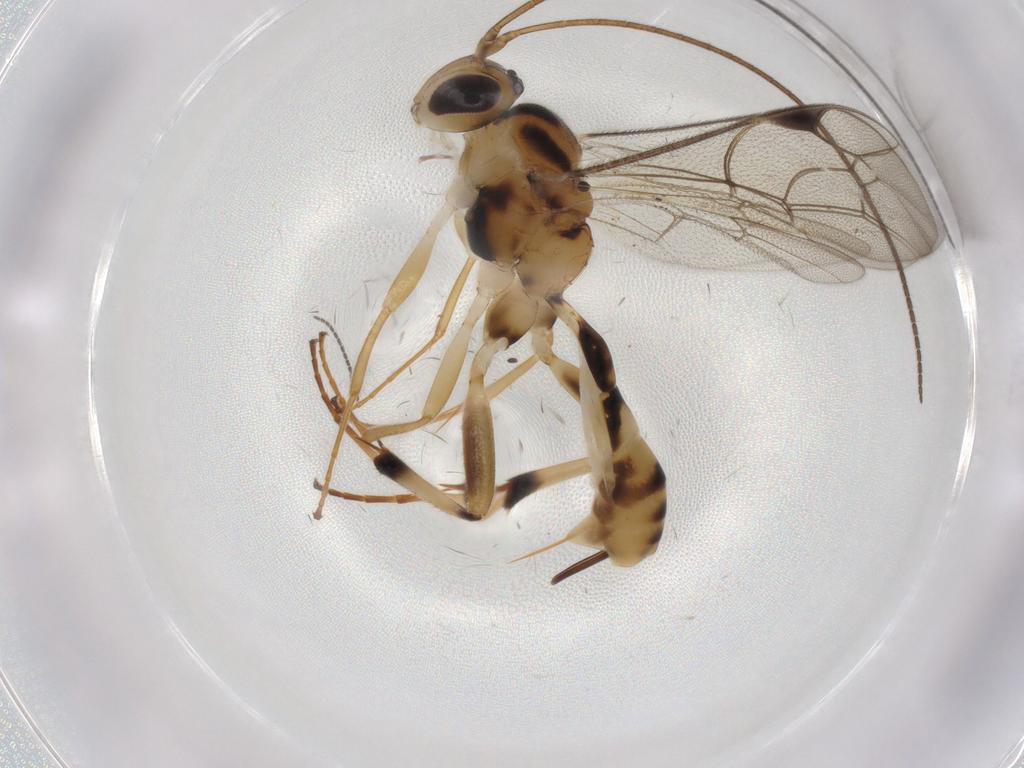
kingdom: Animalia
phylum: Arthropoda
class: Insecta
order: Hymenoptera
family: Ichneumonidae
